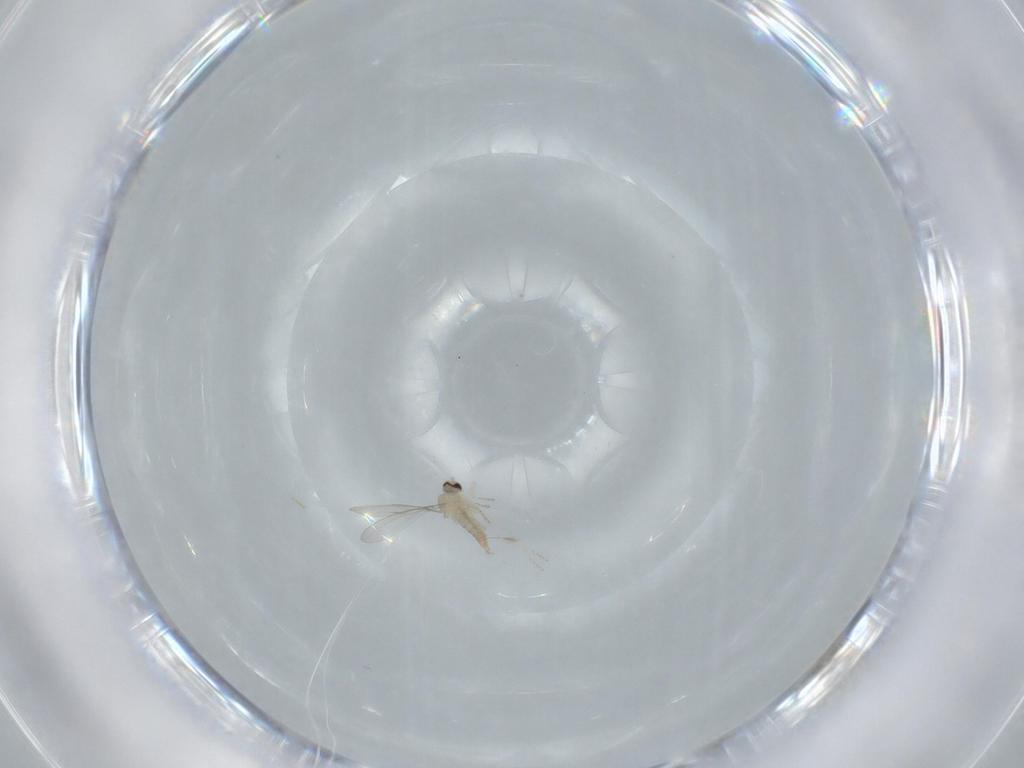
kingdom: Animalia
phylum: Arthropoda
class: Insecta
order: Diptera
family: Cecidomyiidae
